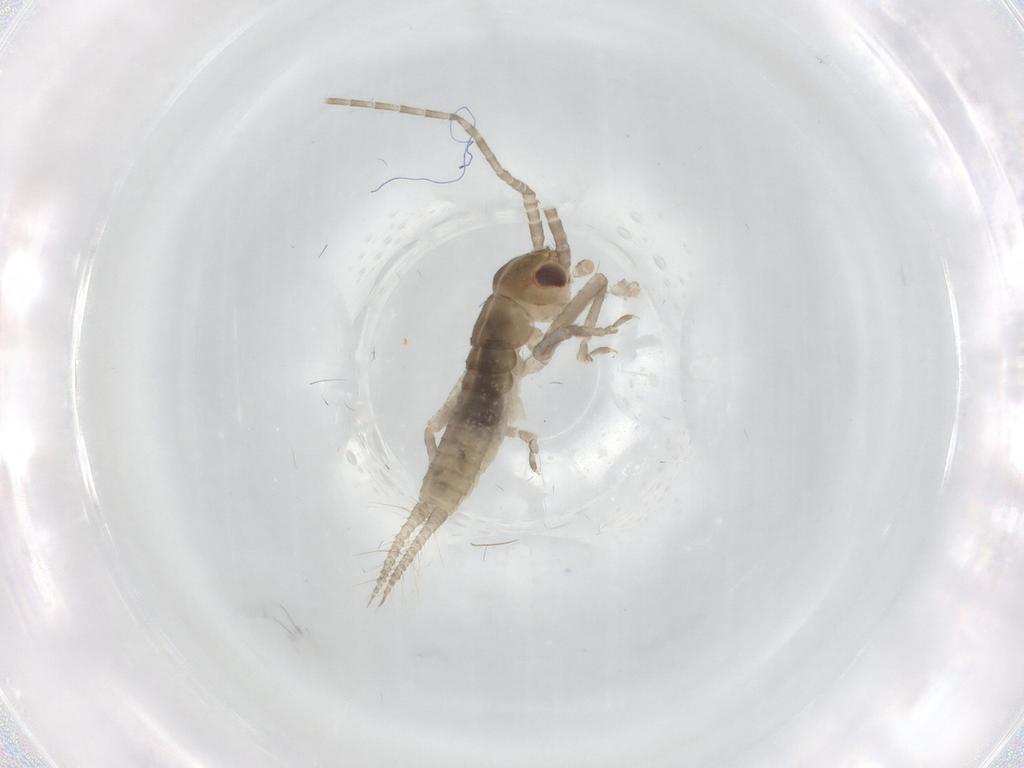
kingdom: Animalia
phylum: Arthropoda
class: Insecta
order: Orthoptera
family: Gryllidae
